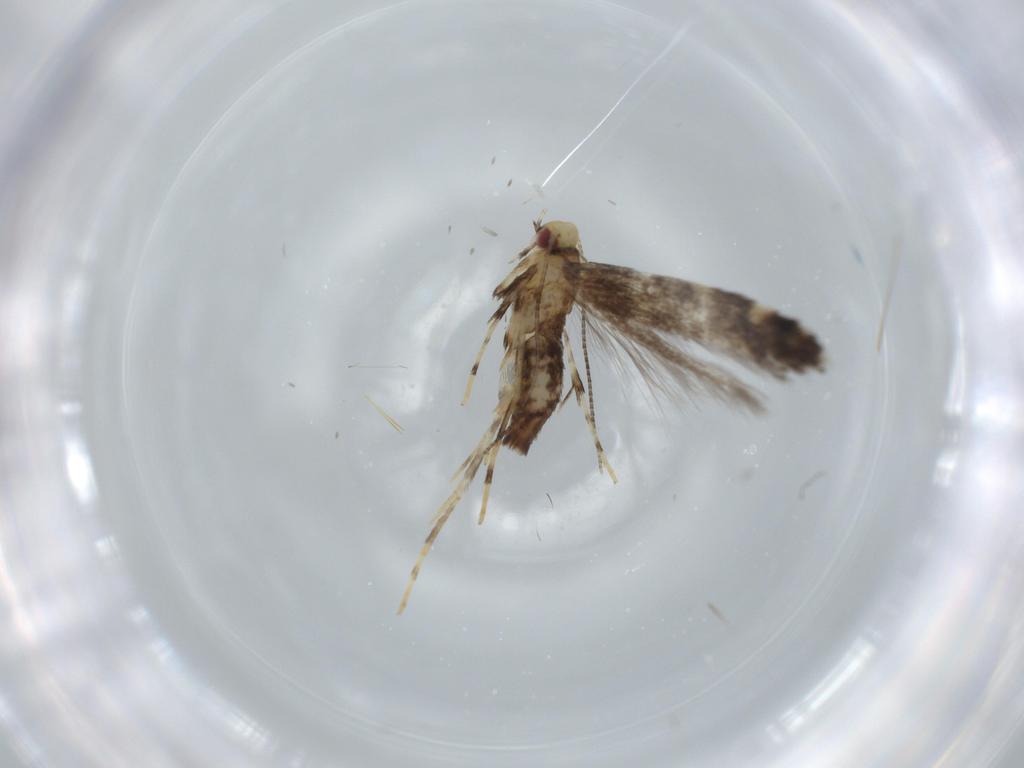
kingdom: Animalia
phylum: Arthropoda
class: Insecta
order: Lepidoptera
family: Gracillariidae
